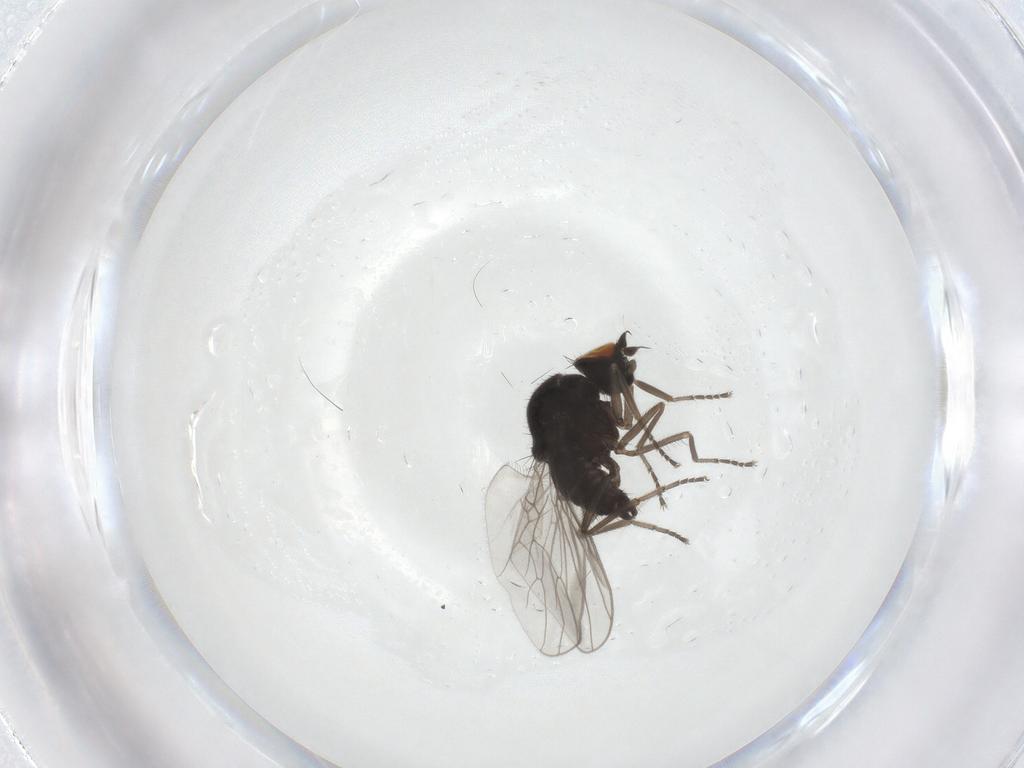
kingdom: Animalia
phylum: Arthropoda
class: Insecta
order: Diptera
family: Hybotidae
